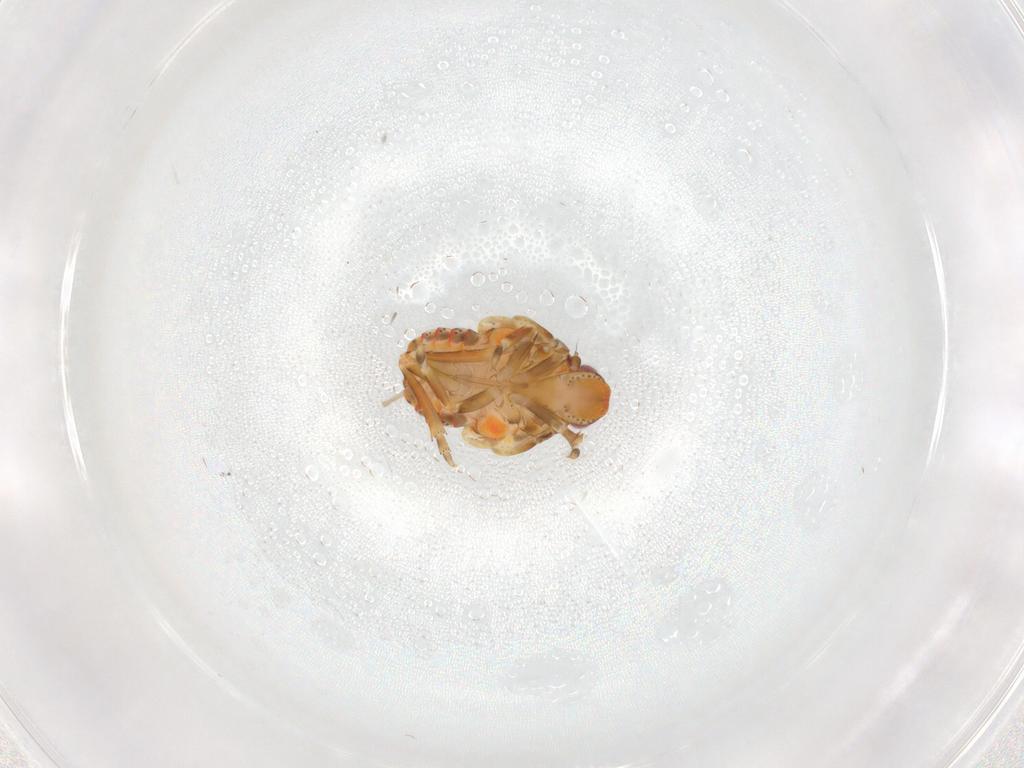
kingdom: Animalia
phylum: Arthropoda
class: Insecta
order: Hemiptera
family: Flatidae
